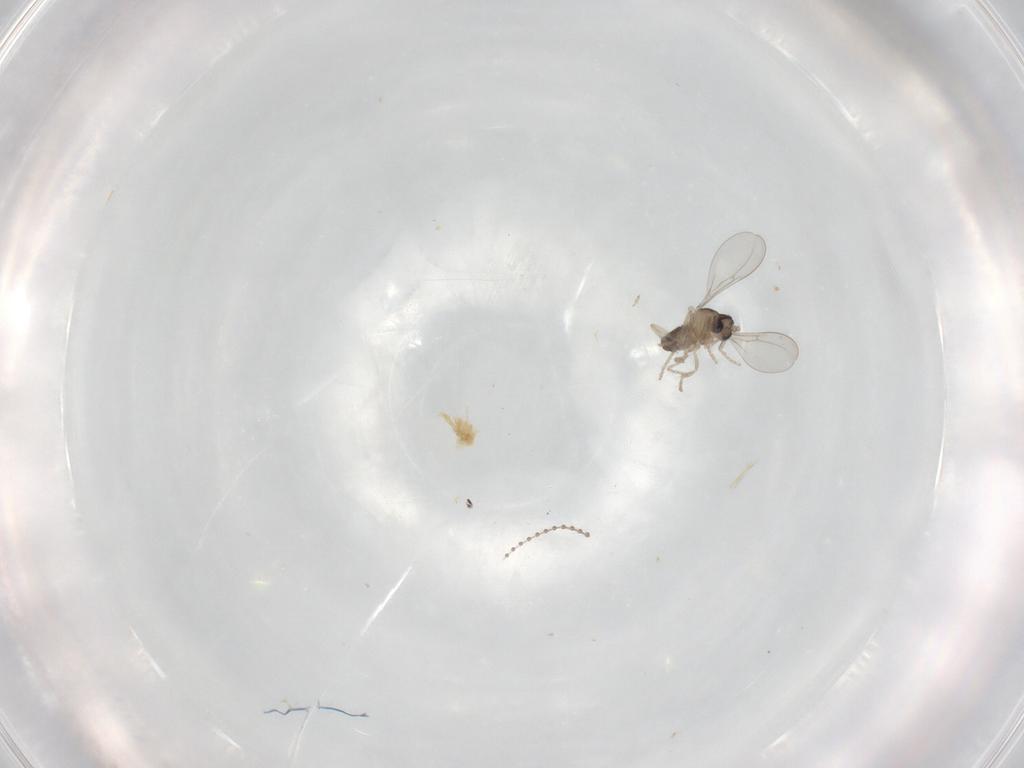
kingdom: Animalia
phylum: Arthropoda
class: Insecta
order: Diptera
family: Cecidomyiidae
